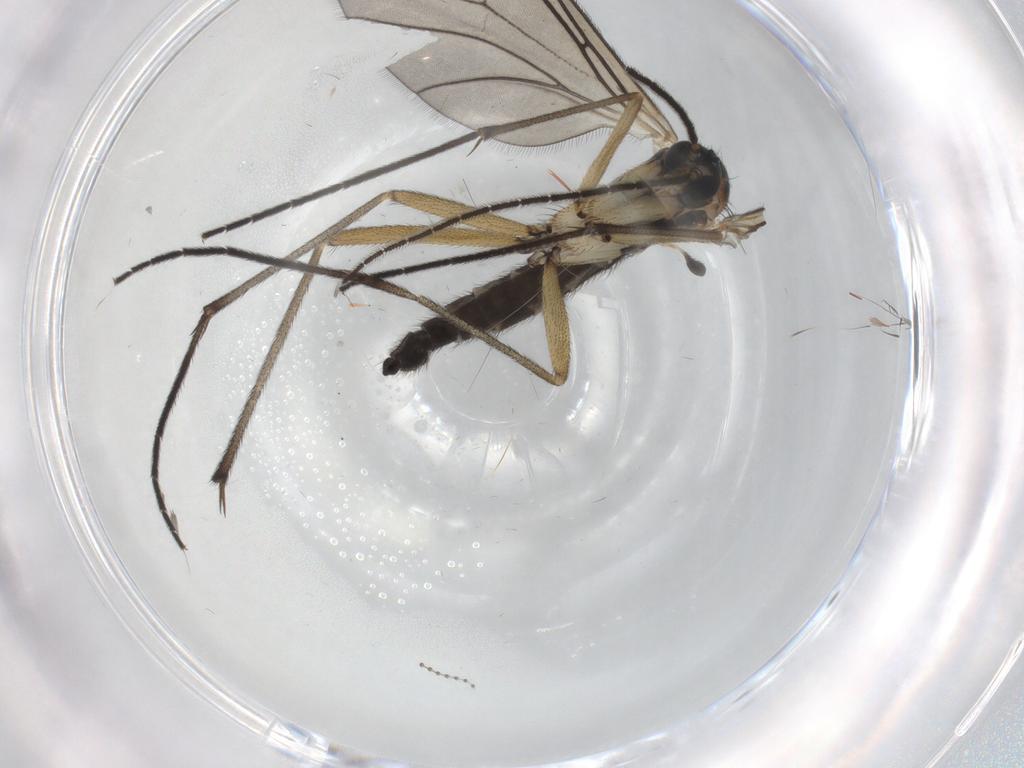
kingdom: Animalia
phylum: Arthropoda
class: Insecta
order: Diptera
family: Sciaridae
